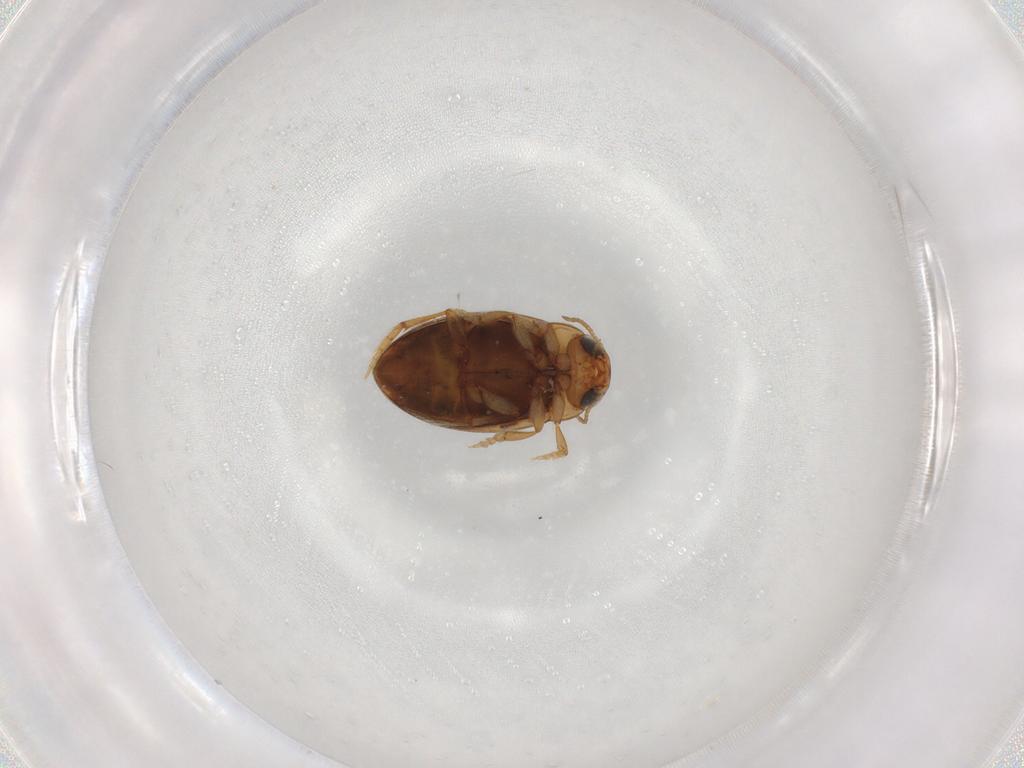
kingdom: Animalia
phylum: Arthropoda
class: Insecta
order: Coleoptera
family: Dytiscidae
